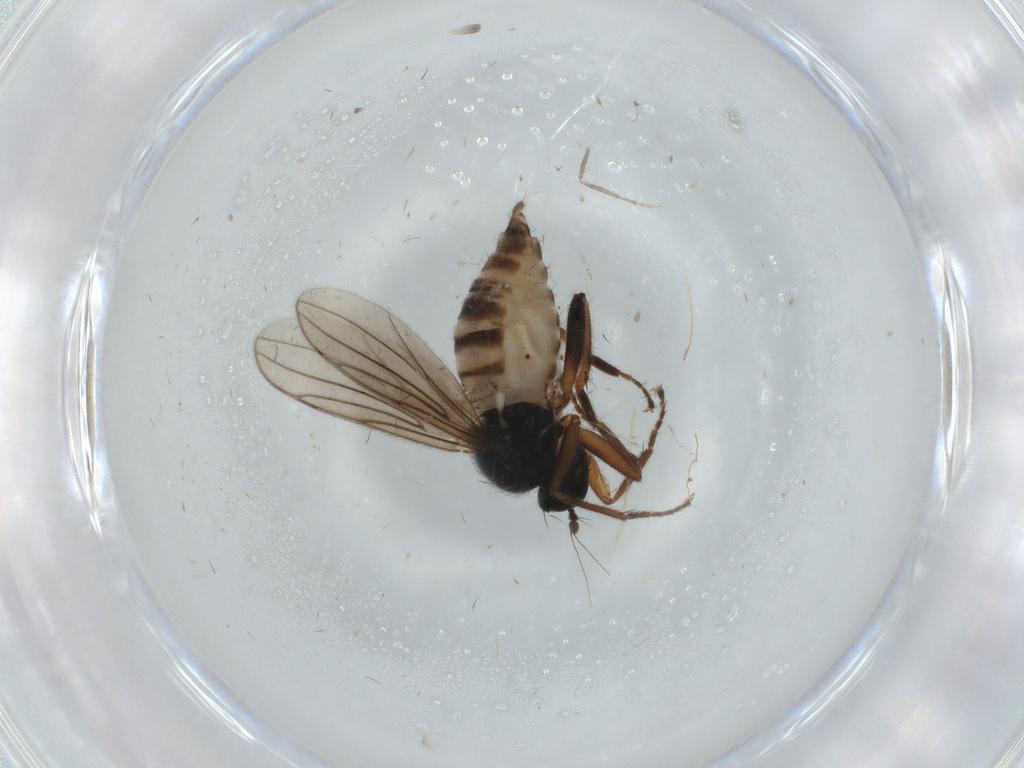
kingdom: Animalia
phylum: Arthropoda
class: Insecta
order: Diptera
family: Hybotidae
